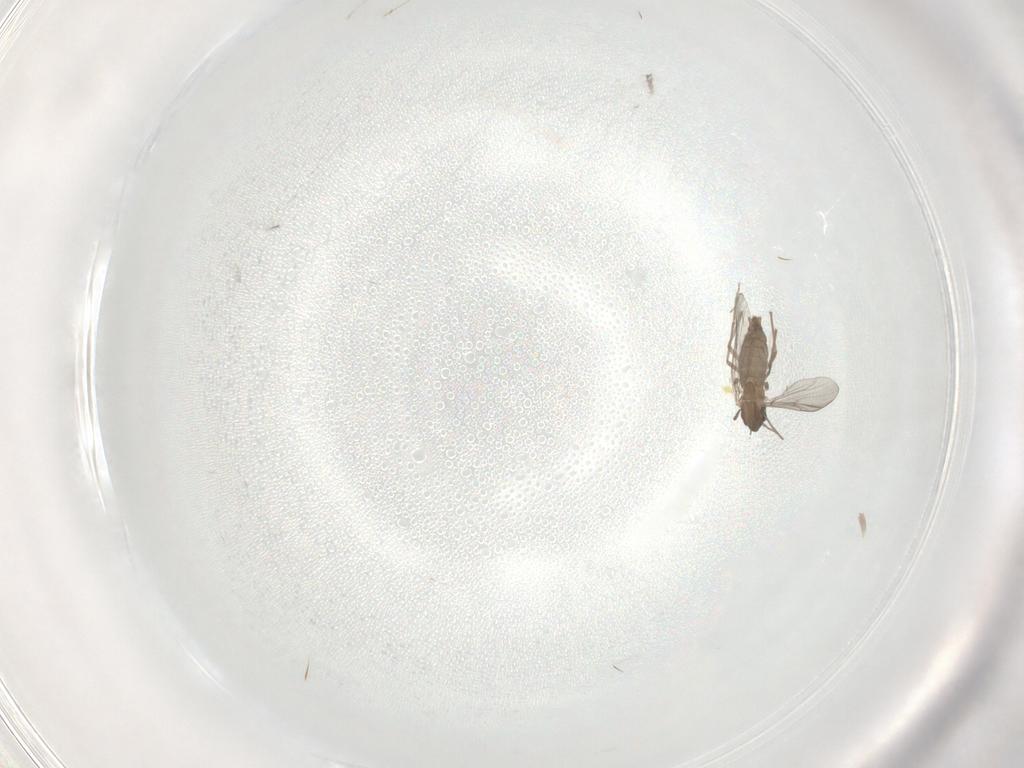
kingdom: Animalia
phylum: Arthropoda
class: Insecta
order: Diptera
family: Chironomidae
